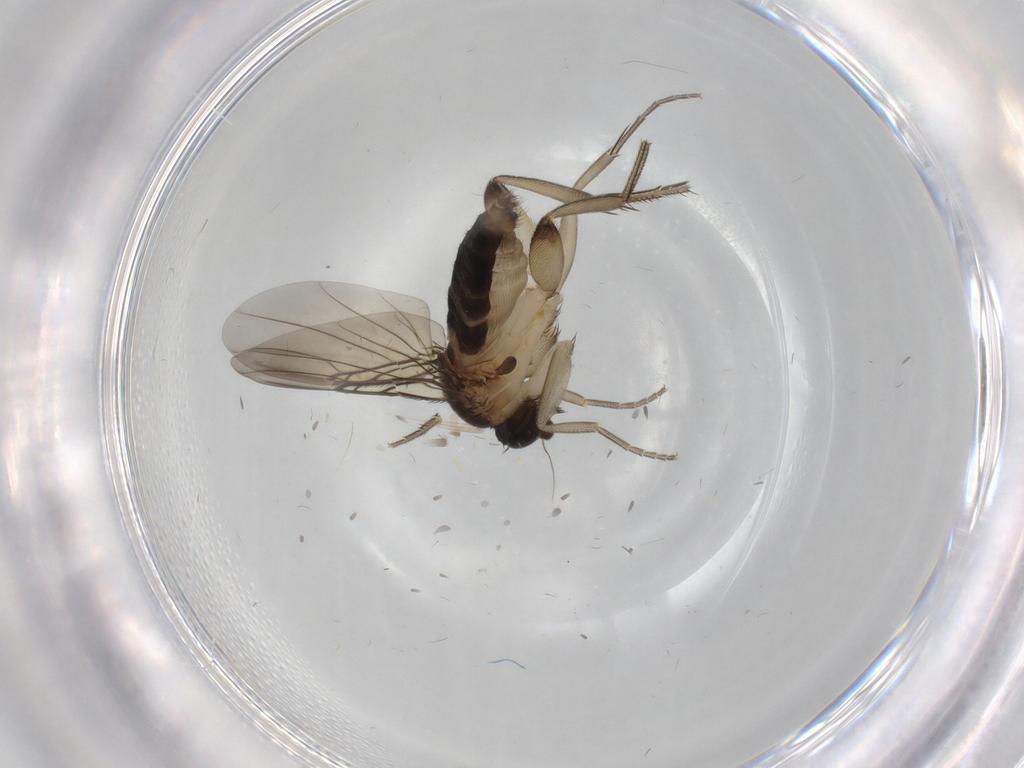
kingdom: Animalia
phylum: Arthropoda
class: Insecta
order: Diptera
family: Phoridae
